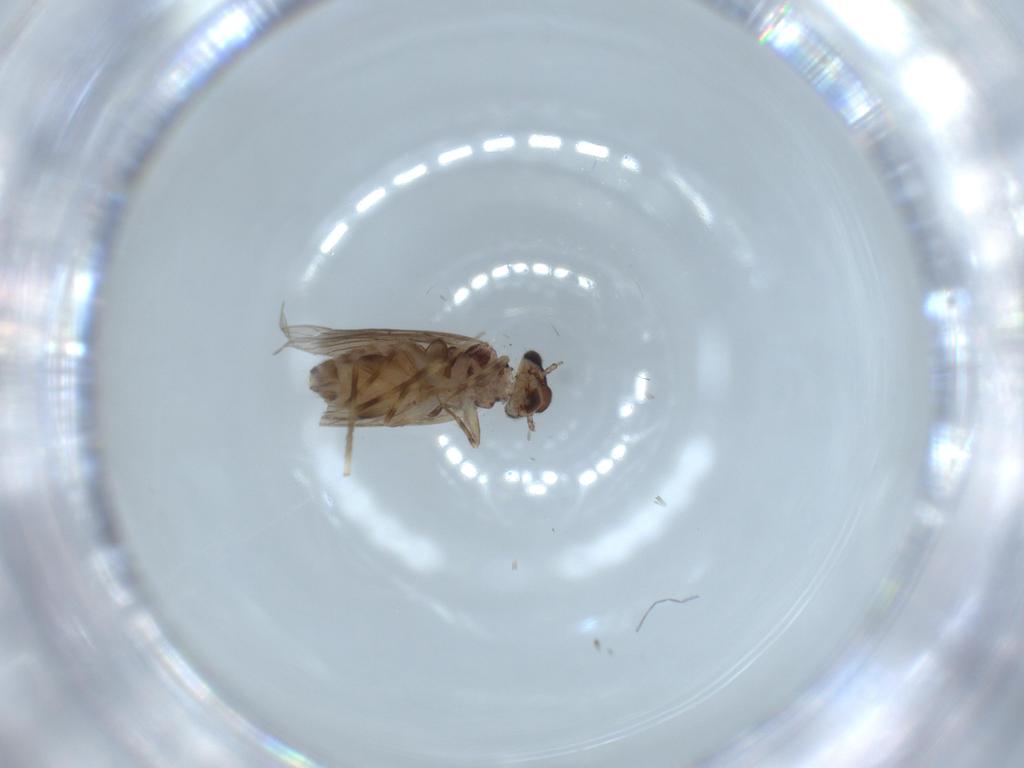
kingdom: Animalia
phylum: Arthropoda
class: Insecta
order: Psocodea
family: Lepidopsocidae
